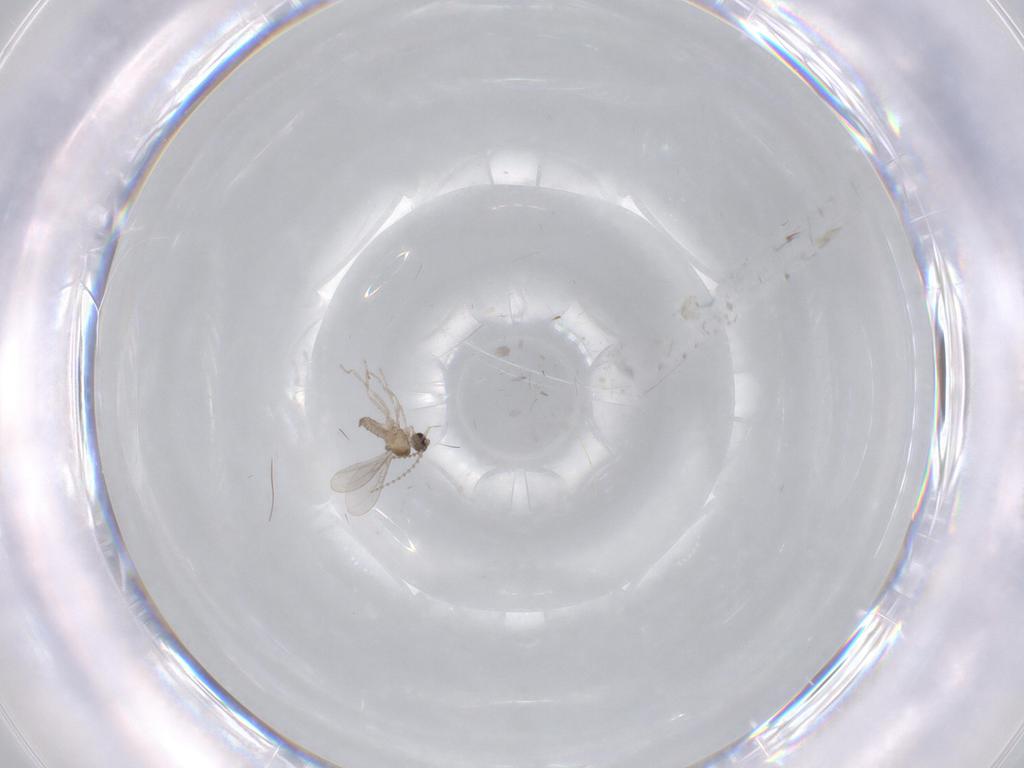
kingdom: Animalia
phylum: Arthropoda
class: Insecta
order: Diptera
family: Cecidomyiidae
